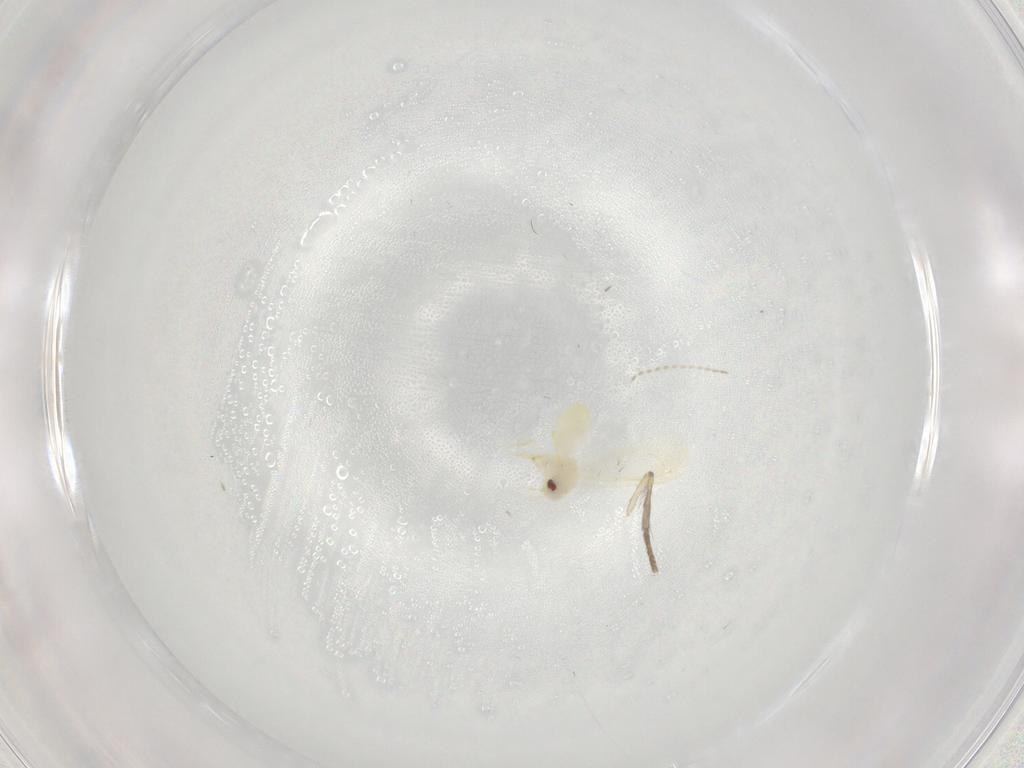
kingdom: Animalia
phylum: Arthropoda
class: Insecta
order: Hemiptera
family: Cicadellidae
